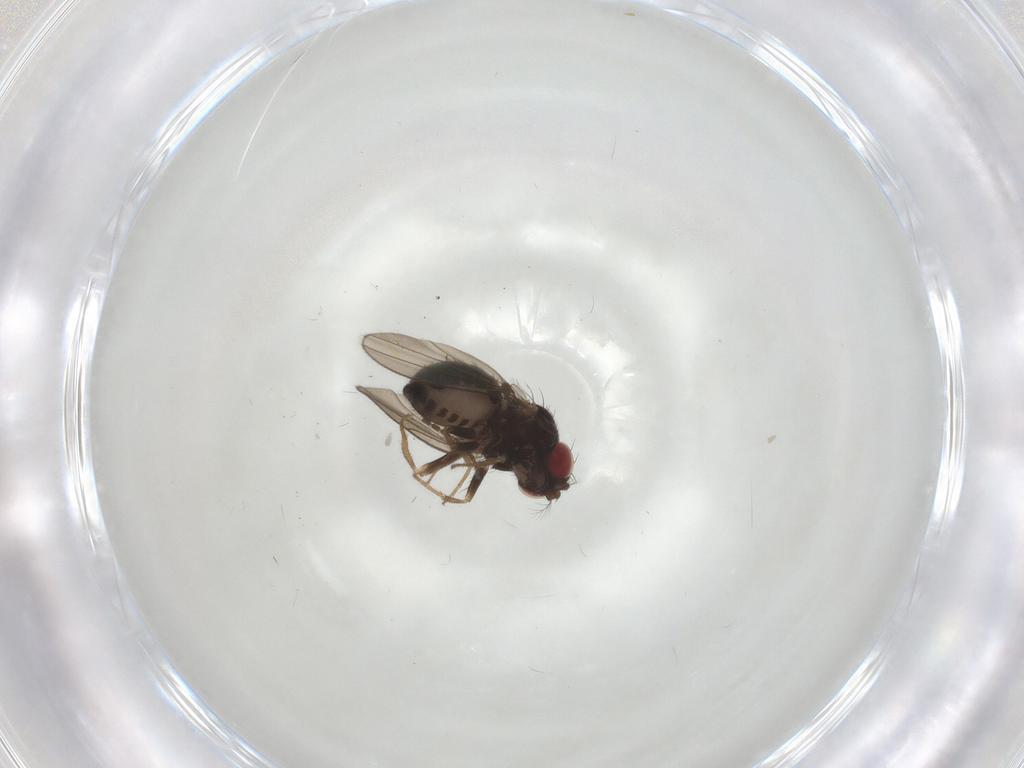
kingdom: Animalia
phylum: Arthropoda
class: Insecta
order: Diptera
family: Drosophilidae
